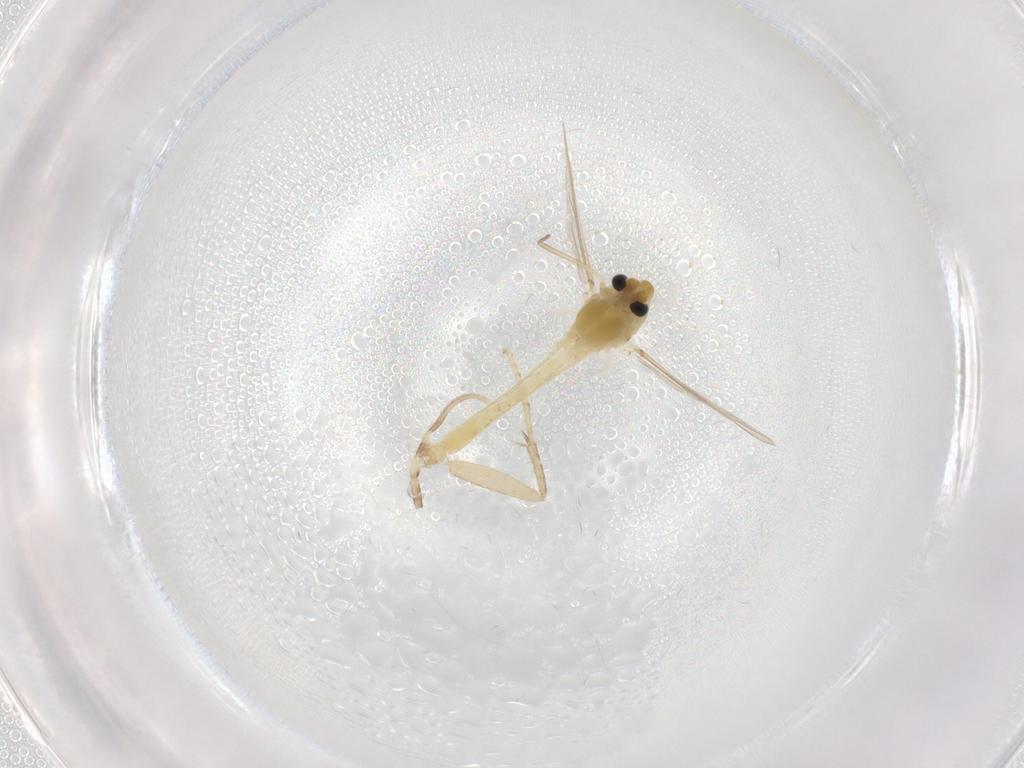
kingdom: Animalia
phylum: Arthropoda
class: Insecta
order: Diptera
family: Chironomidae
